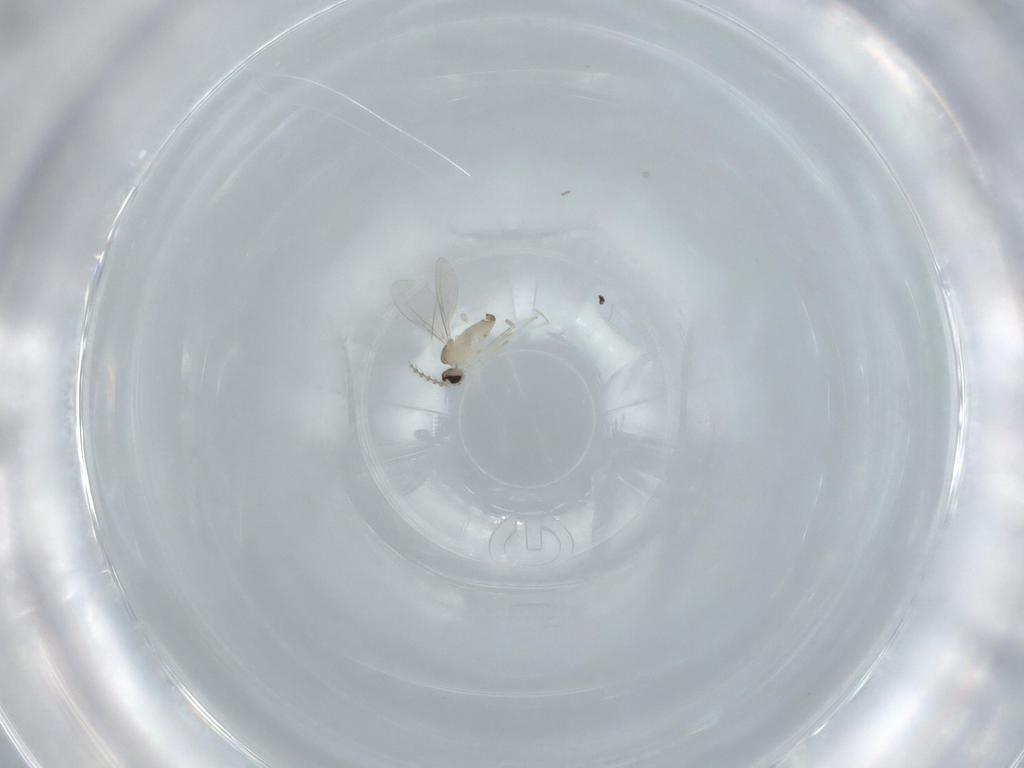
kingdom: Animalia
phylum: Arthropoda
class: Insecta
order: Diptera
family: Cecidomyiidae
